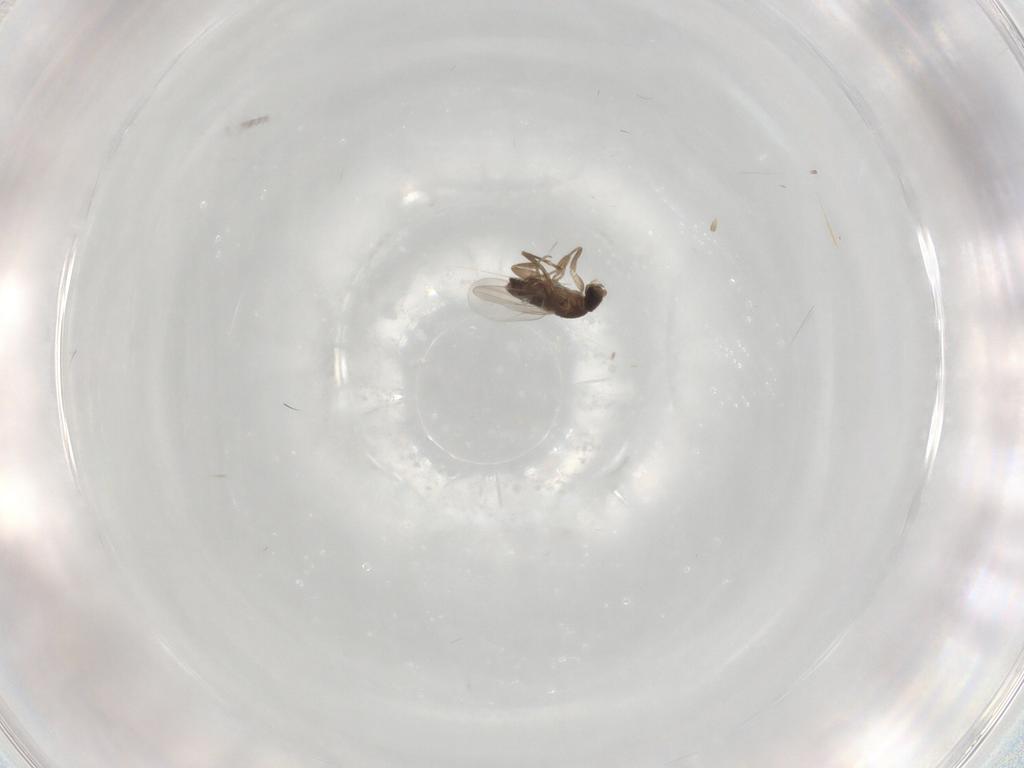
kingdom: Animalia
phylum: Arthropoda
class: Insecta
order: Diptera
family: Phoridae
